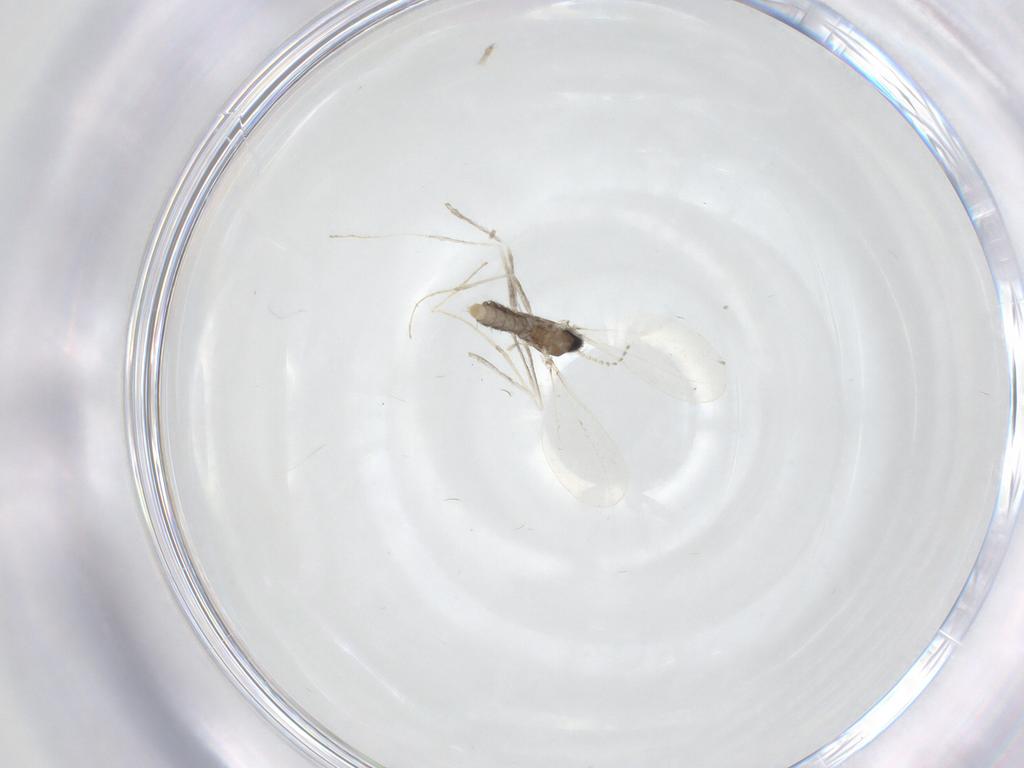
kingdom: Animalia
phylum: Arthropoda
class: Insecta
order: Diptera
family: Cecidomyiidae
